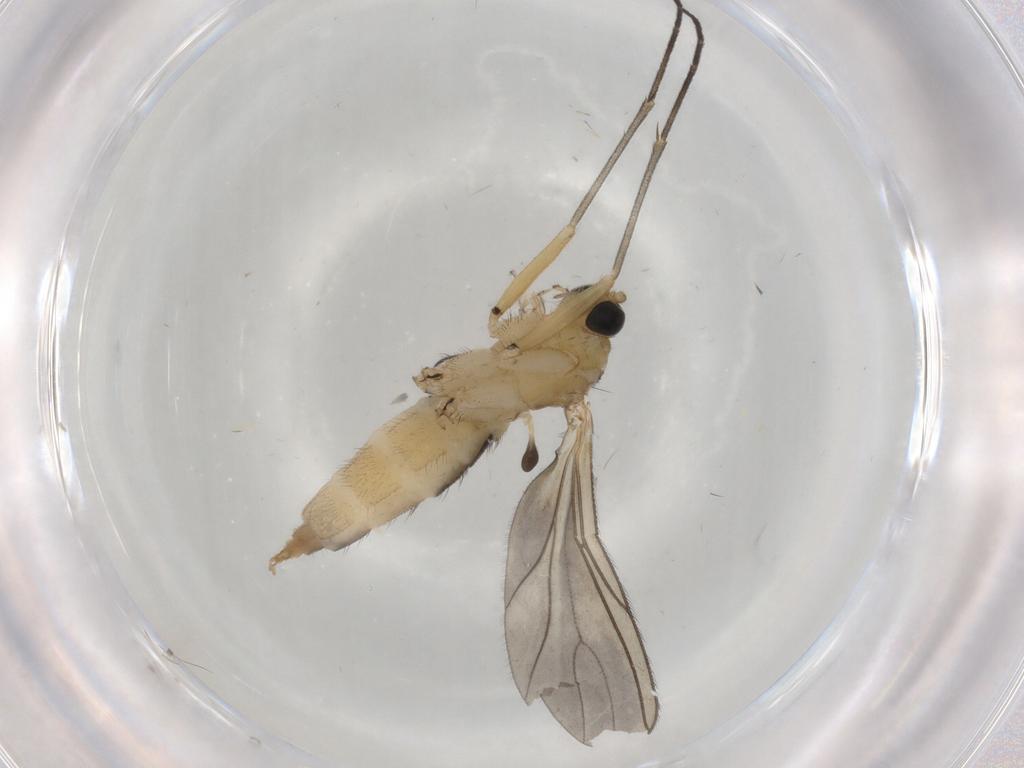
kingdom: Animalia
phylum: Arthropoda
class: Insecta
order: Diptera
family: Sciaridae
